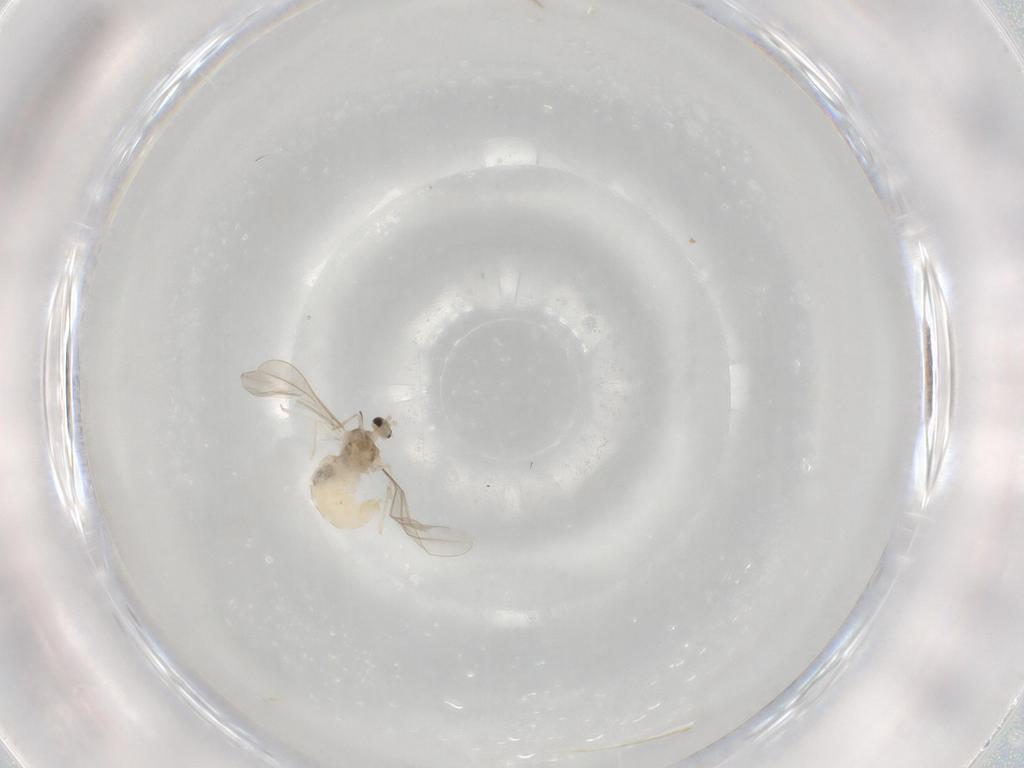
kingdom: Animalia
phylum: Arthropoda
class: Insecta
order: Diptera
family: Cecidomyiidae
